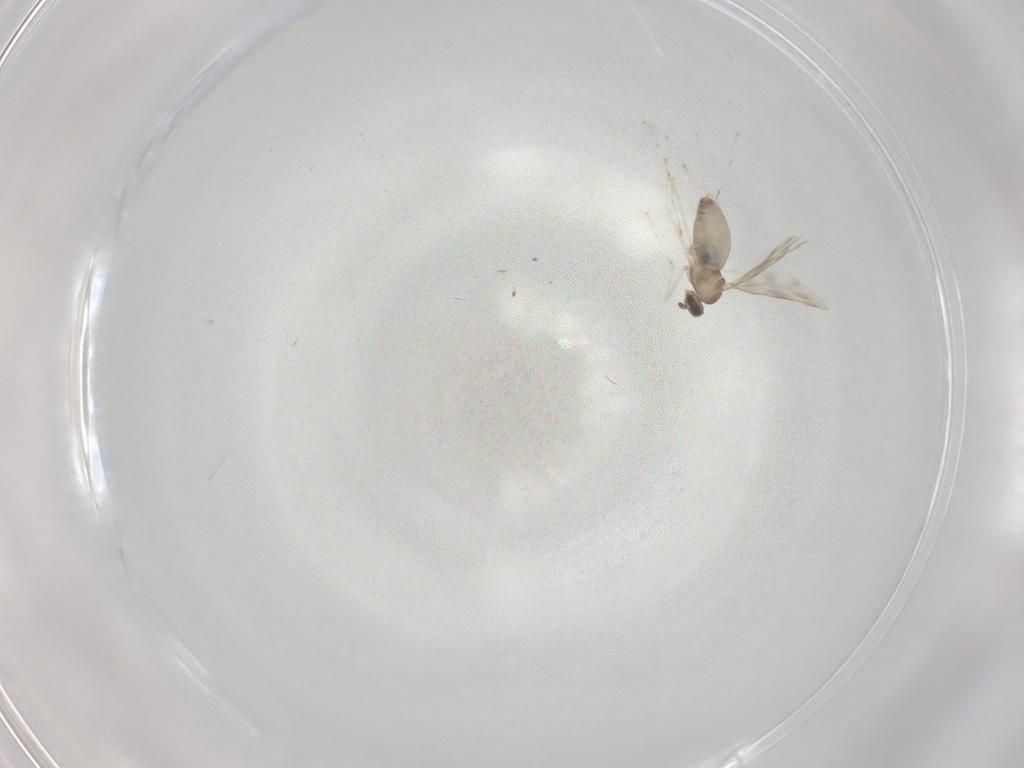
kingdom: Animalia
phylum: Arthropoda
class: Insecta
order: Diptera
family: Cecidomyiidae
